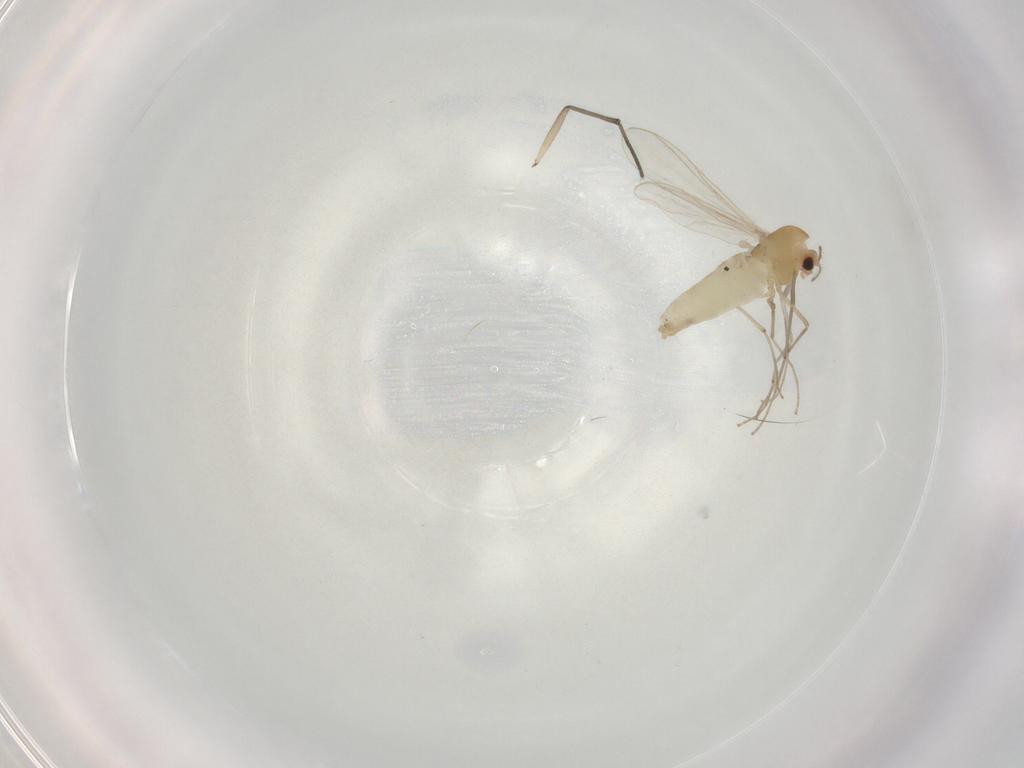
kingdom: Animalia
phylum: Arthropoda
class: Insecta
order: Diptera
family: Chironomidae
